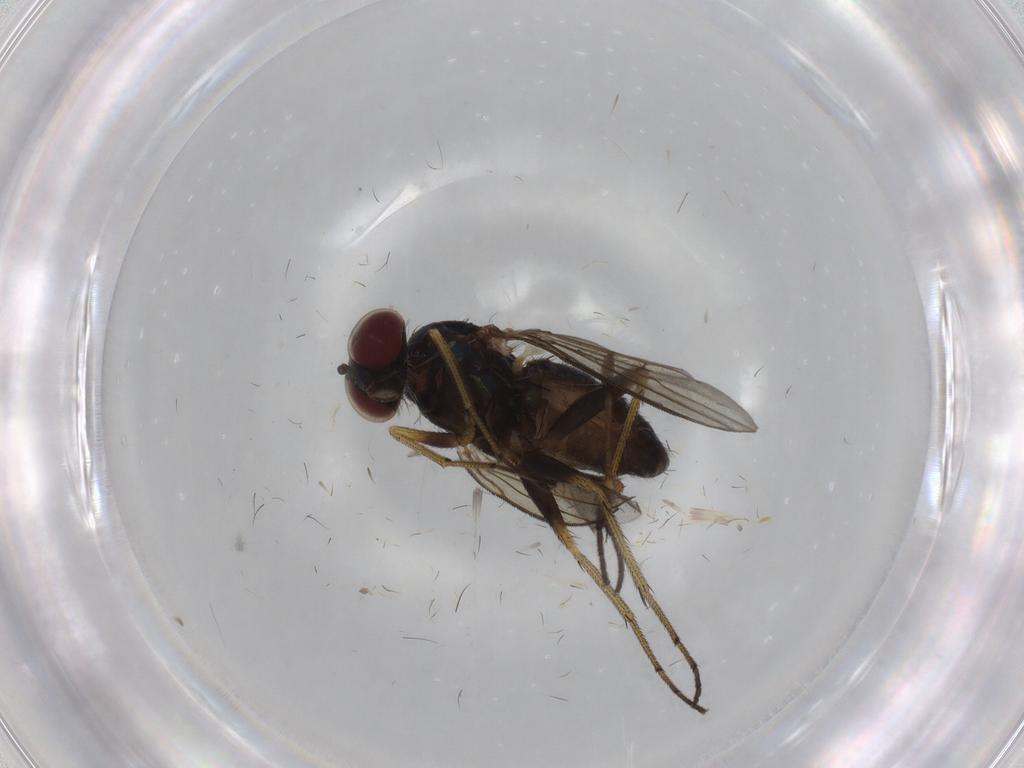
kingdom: Animalia
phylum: Arthropoda
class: Insecta
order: Diptera
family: Dolichopodidae
